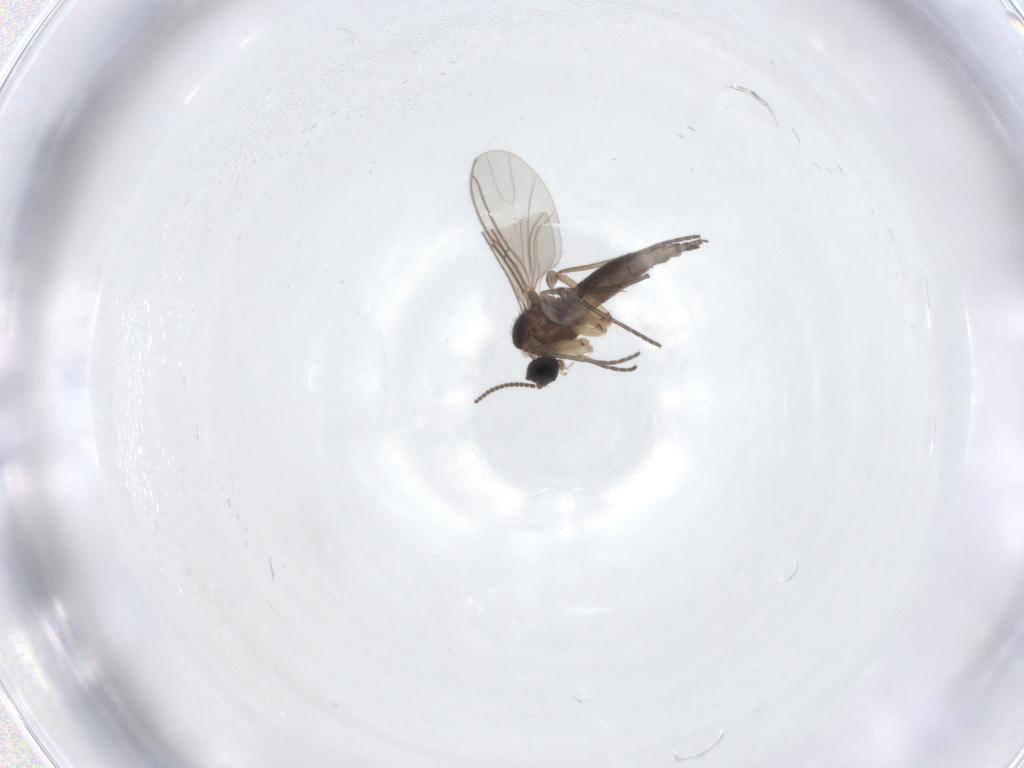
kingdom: Animalia
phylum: Arthropoda
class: Insecta
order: Diptera
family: Sciaridae
